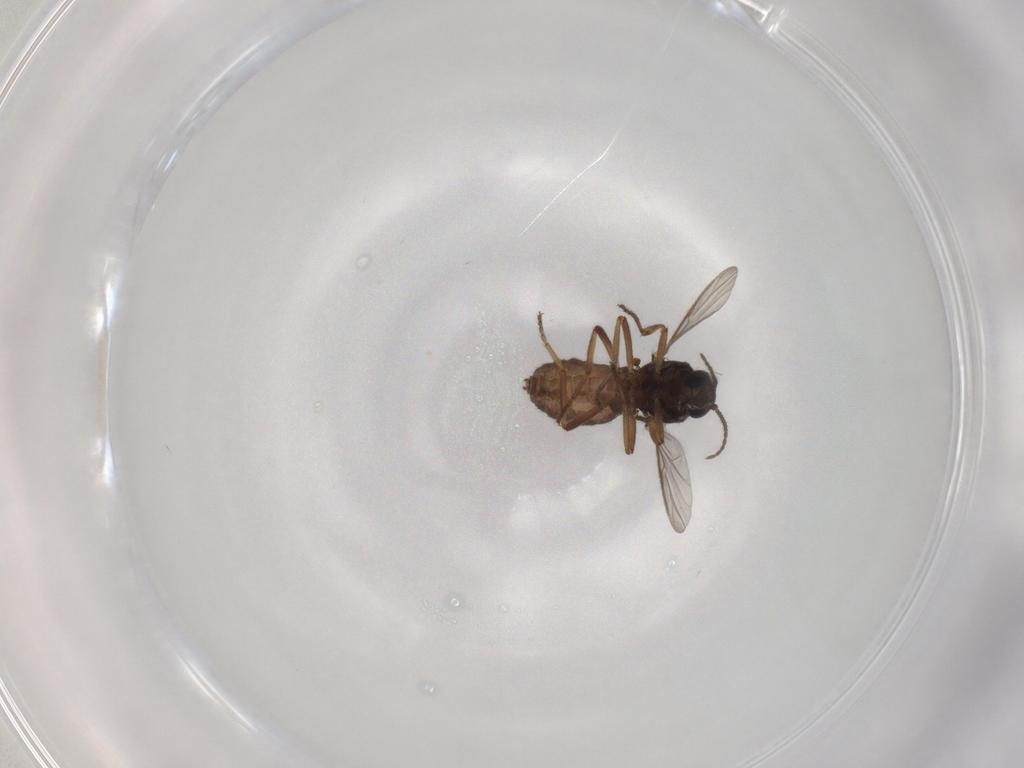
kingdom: Animalia
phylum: Arthropoda
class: Insecta
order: Diptera
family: Ceratopogonidae
